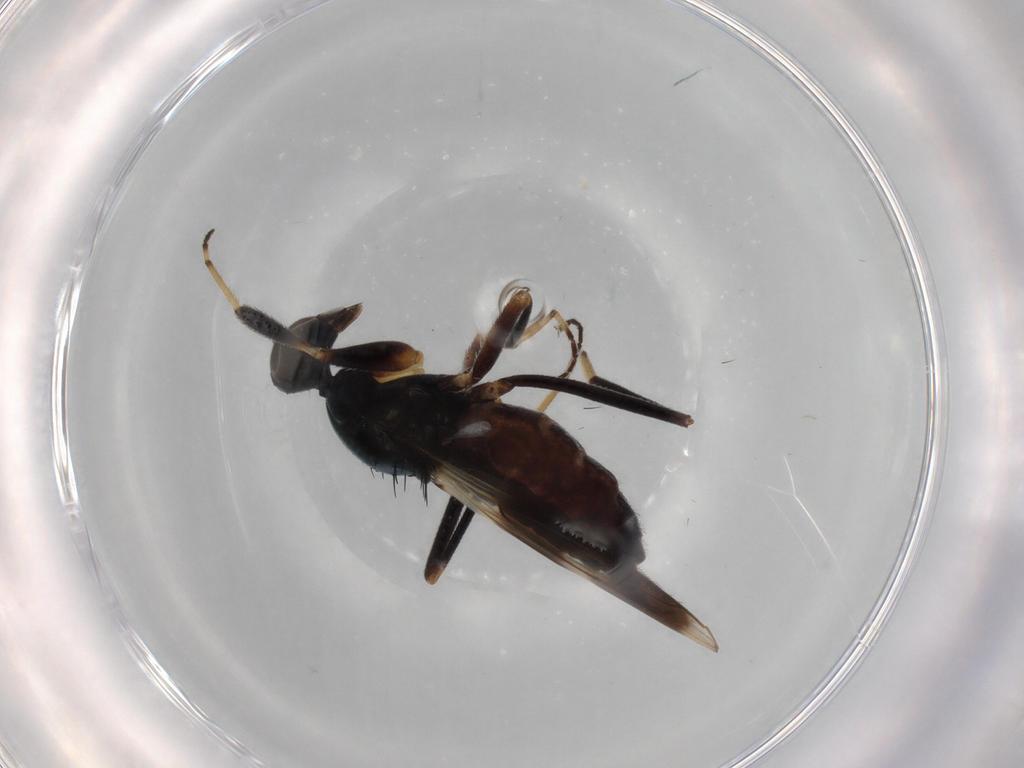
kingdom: Animalia
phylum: Arthropoda
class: Insecta
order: Diptera
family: Hybotidae
